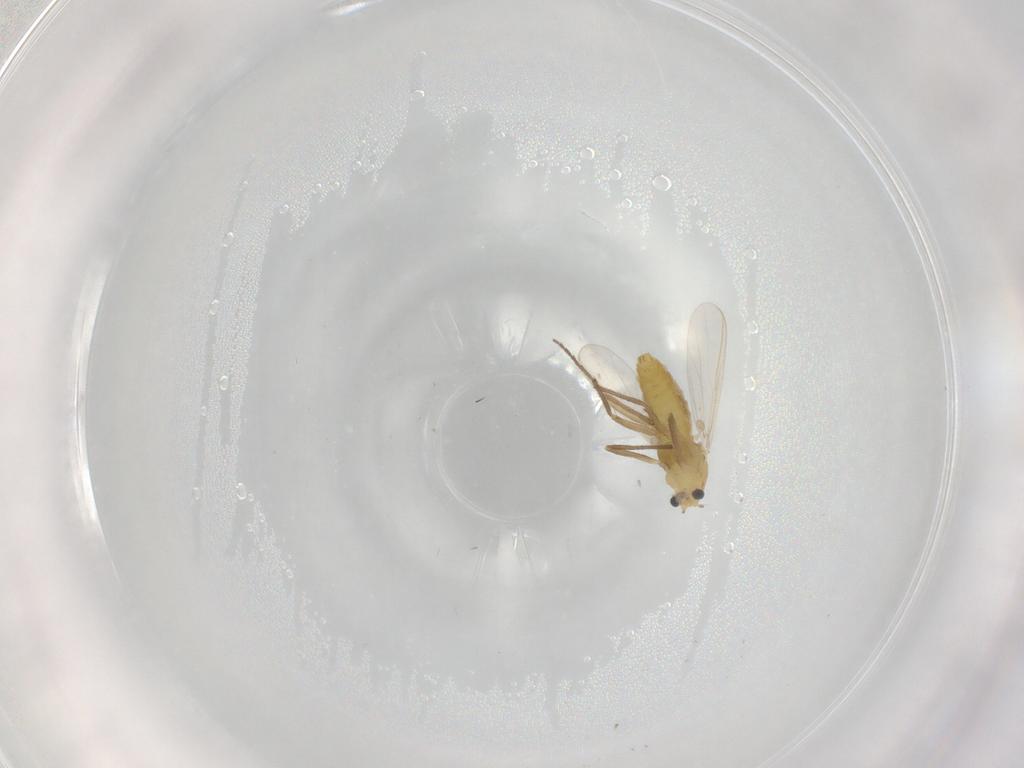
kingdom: Animalia
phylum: Arthropoda
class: Insecta
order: Diptera
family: Chironomidae
